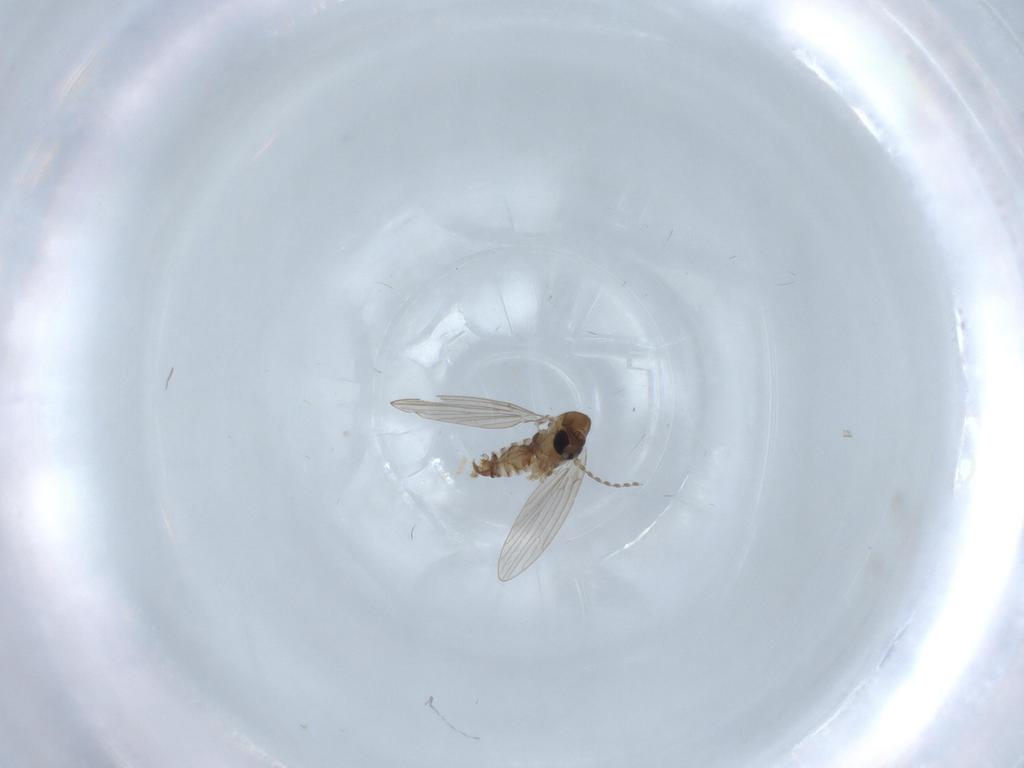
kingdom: Animalia
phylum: Arthropoda
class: Insecta
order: Diptera
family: Psychodidae
